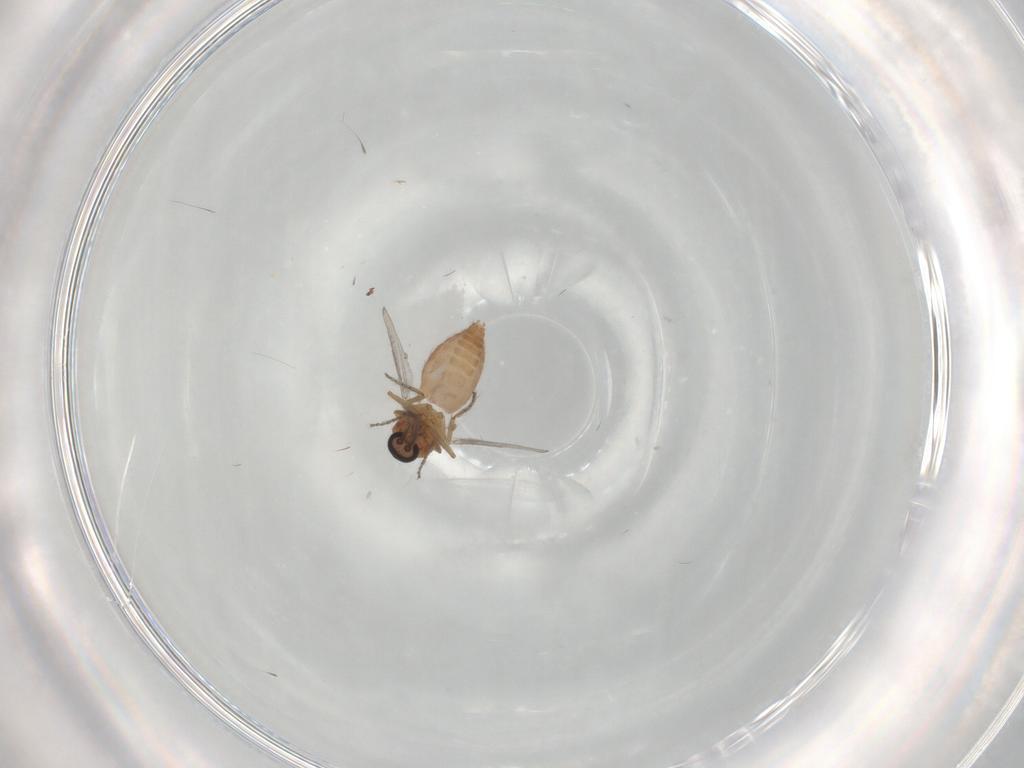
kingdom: Animalia
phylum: Arthropoda
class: Insecta
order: Diptera
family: Ceratopogonidae
